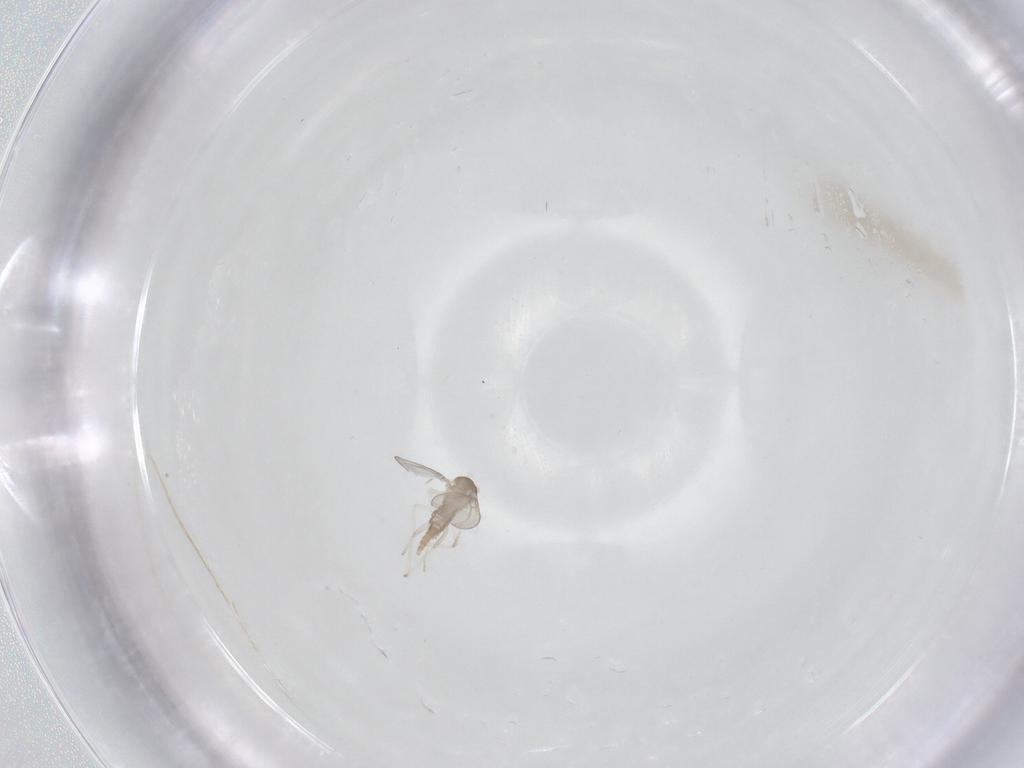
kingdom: Animalia
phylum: Arthropoda
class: Insecta
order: Diptera
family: Cecidomyiidae
